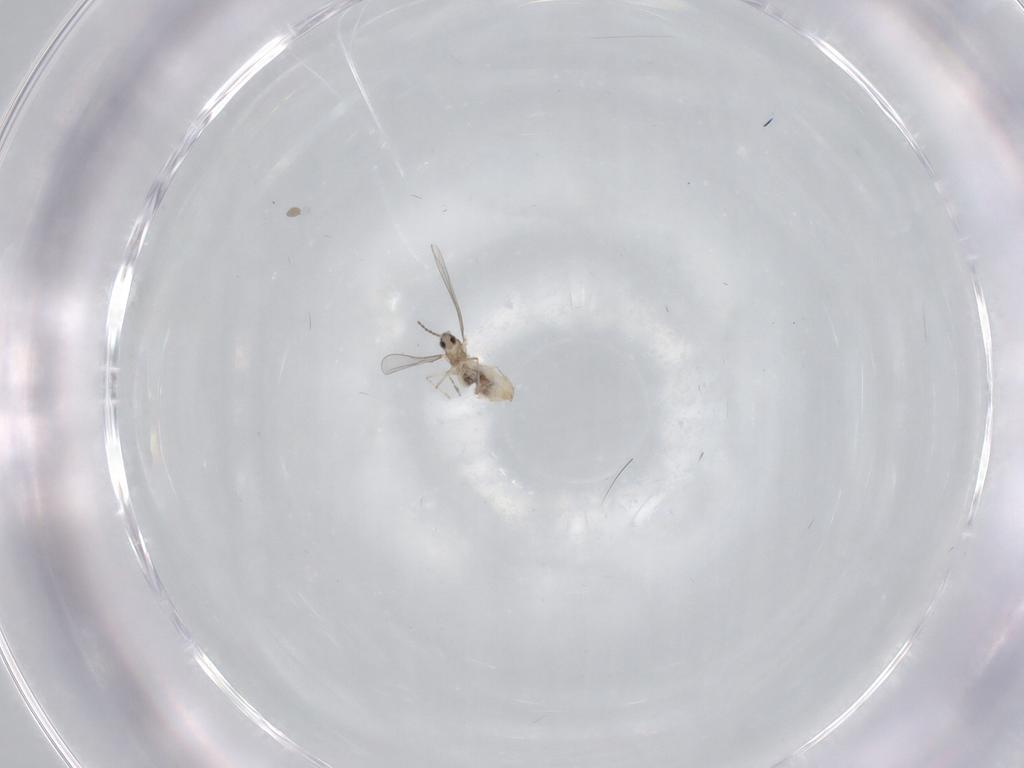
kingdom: Animalia
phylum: Arthropoda
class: Insecta
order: Diptera
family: Cecidomyiidae
